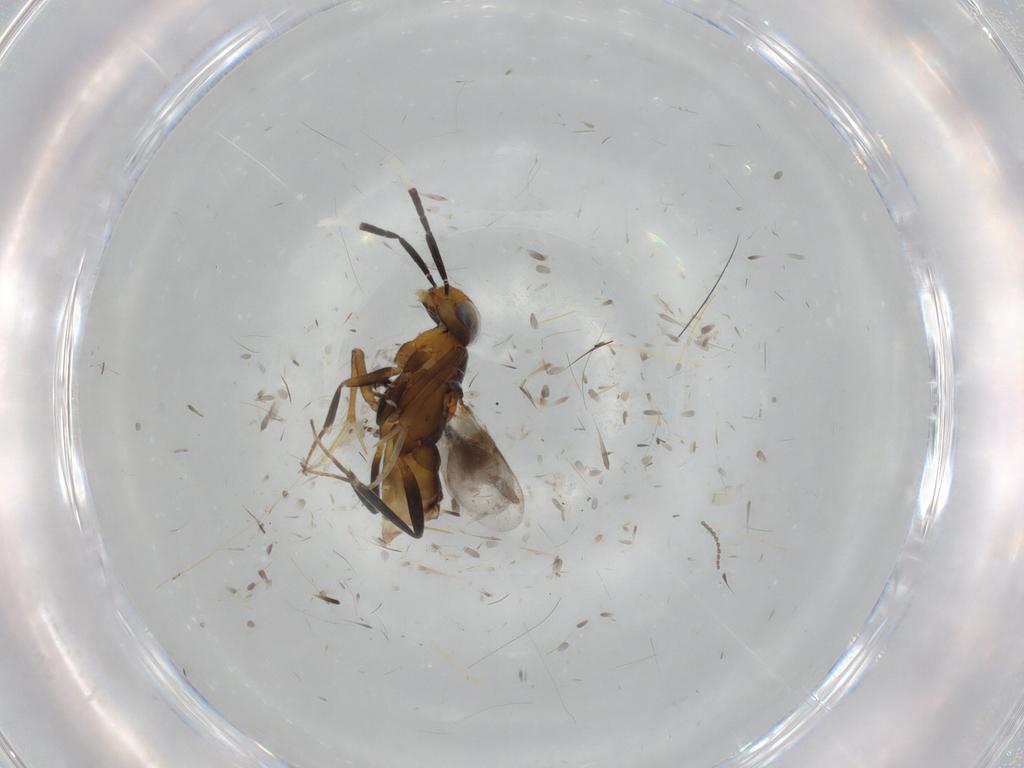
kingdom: Animalia
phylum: Arthropoda
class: Insecta
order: Hymenoptera
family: Encyrtidae
